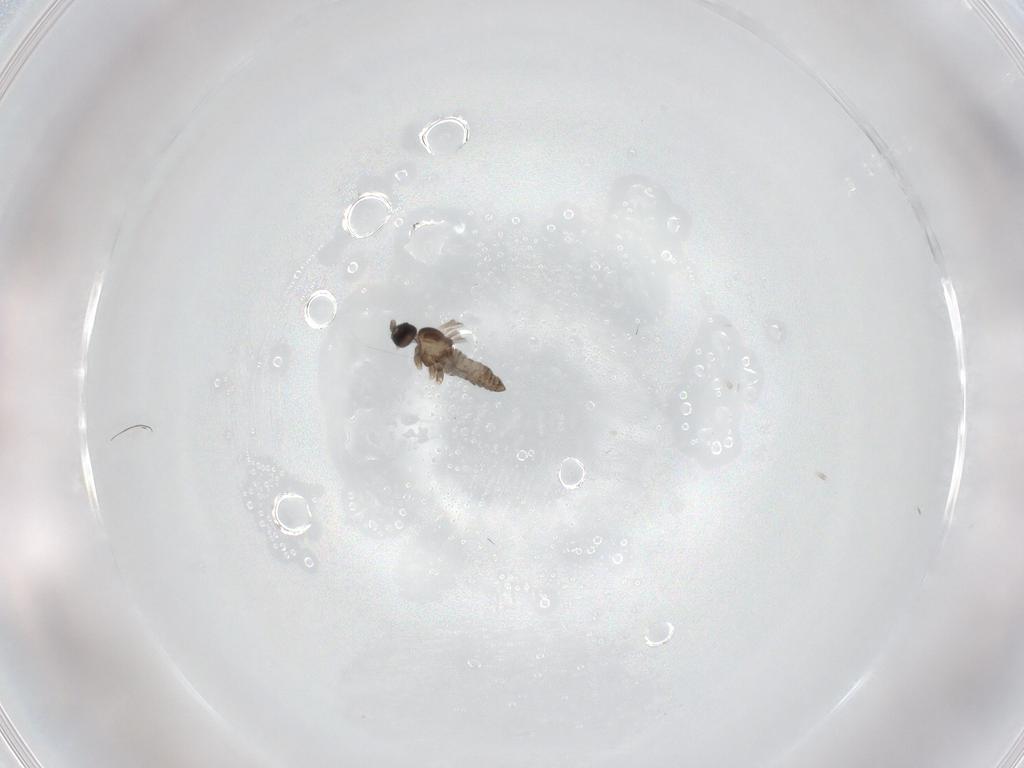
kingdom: Animalia
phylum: Arthropoda
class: Insecta
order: Diptera
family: Cecidomyiidae
